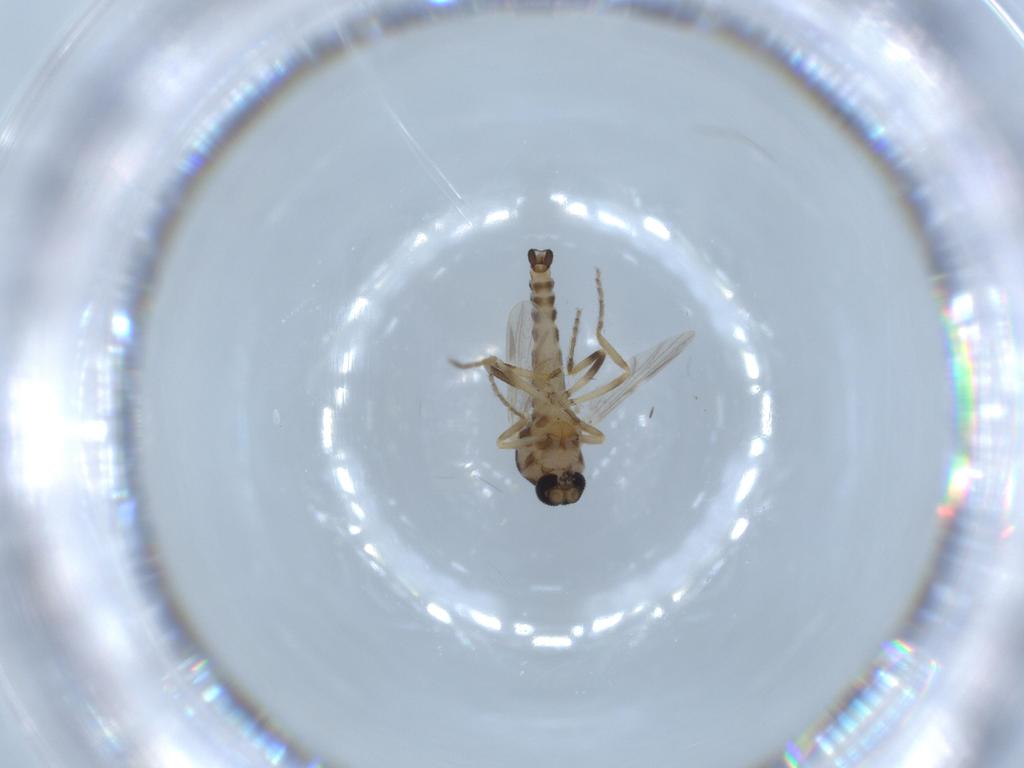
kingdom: Animalia
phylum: Arthropoda
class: Insecta
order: Diptera
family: Ceratopogonidae
